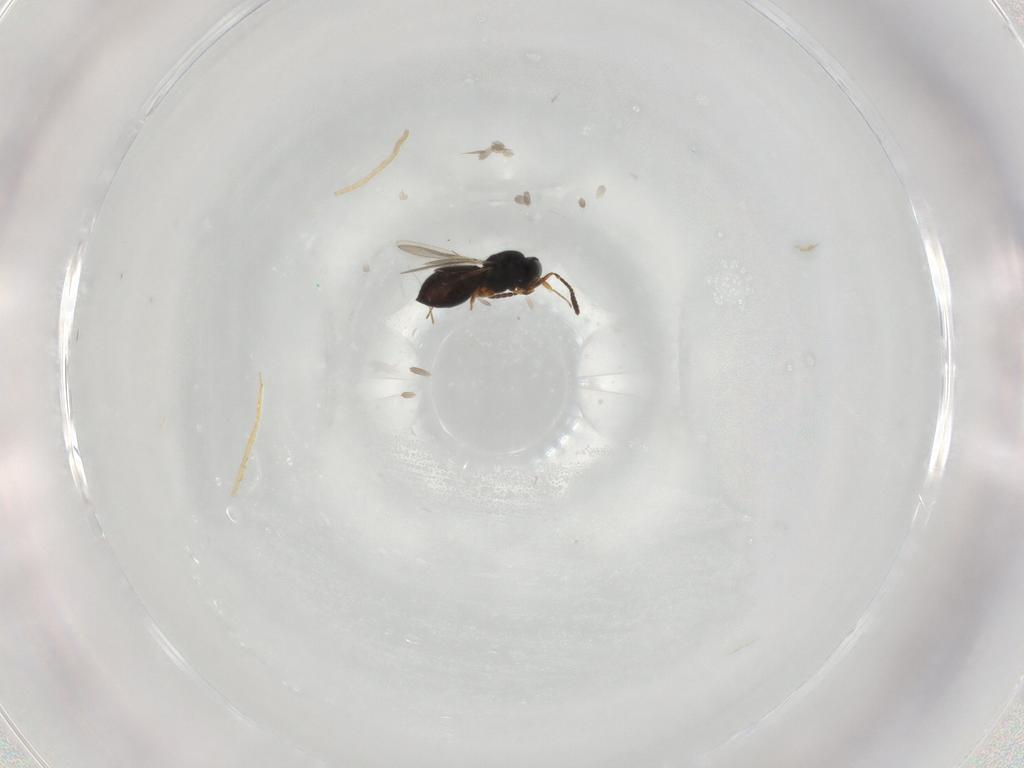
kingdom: Animalia
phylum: Arthropoda
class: Insecta
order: Hymenoptera
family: Scelionidae
